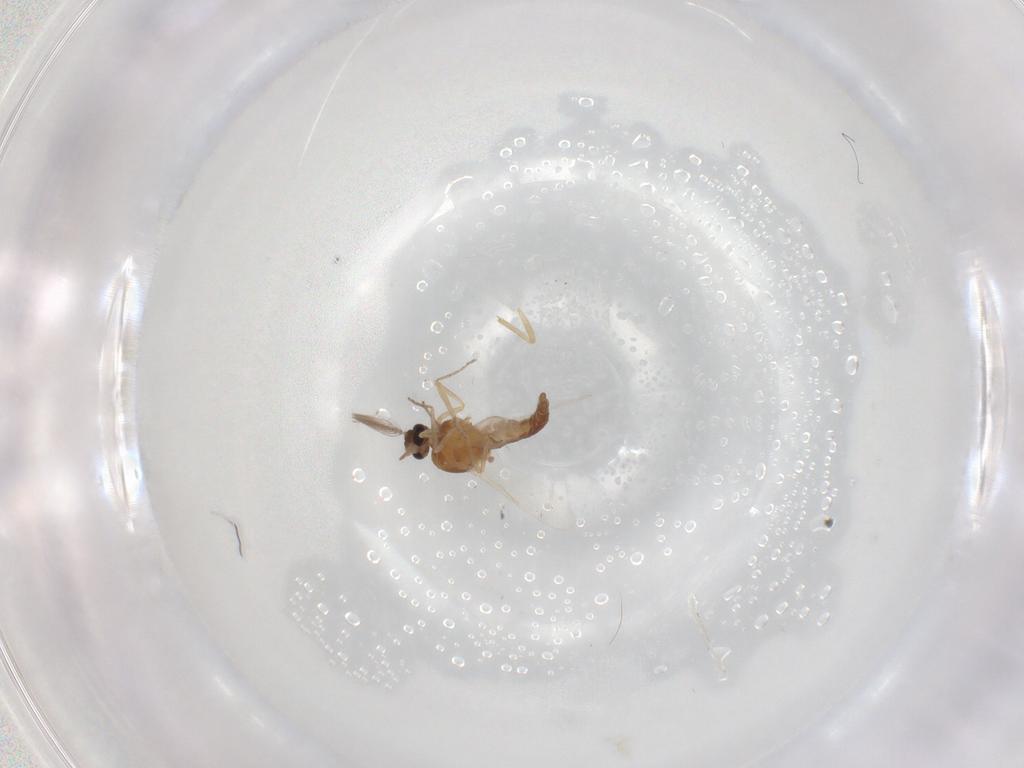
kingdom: Animalia
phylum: Arthropoda
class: Insecta
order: Diptera
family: Ceratopogonidae
